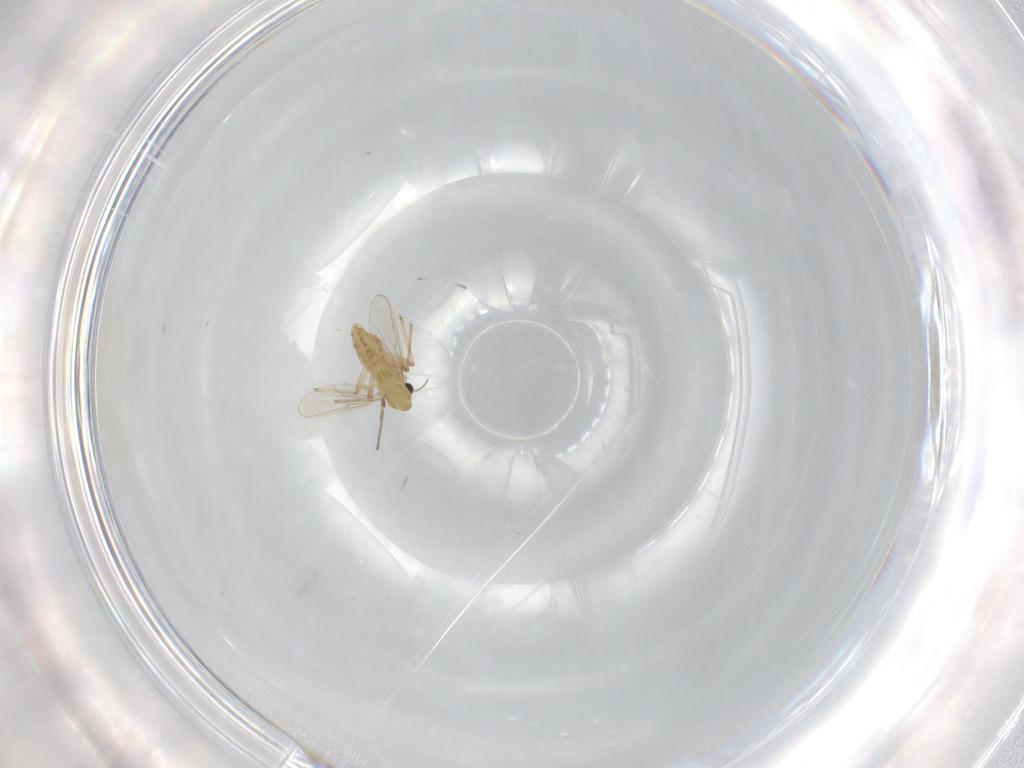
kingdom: Animalia
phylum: Arthropoda
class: Insecta
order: Diptera
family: Chironomidae
